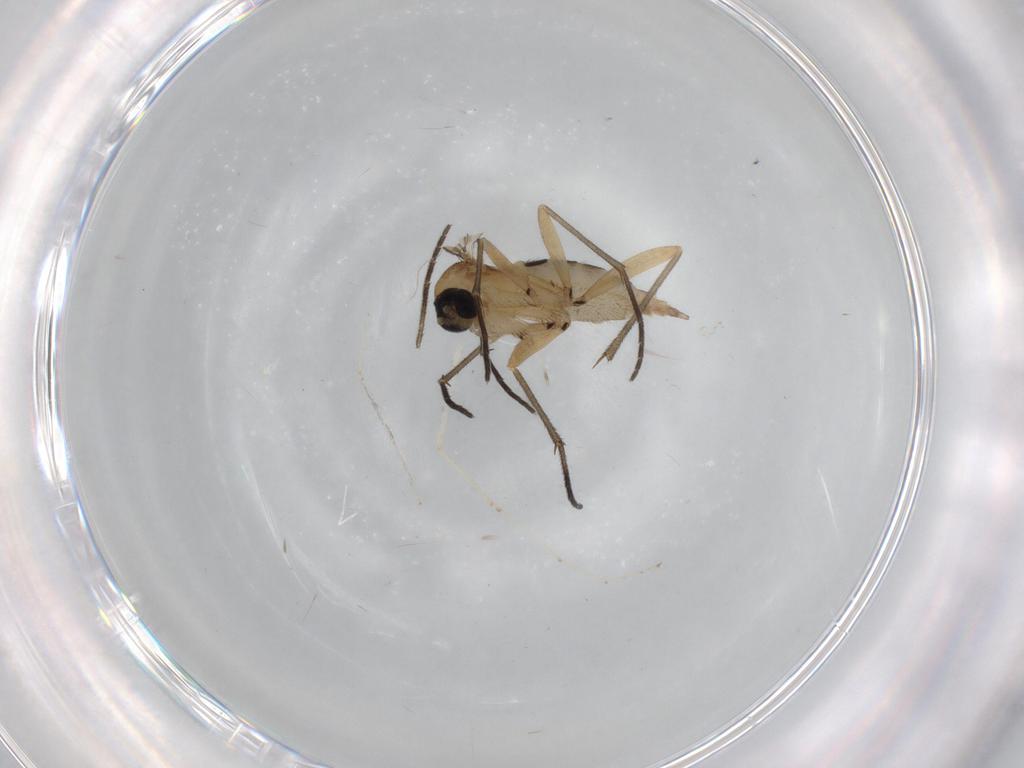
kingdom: Animalia
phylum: Arthropoda
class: Insecta
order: Diptera
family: Sciaridae
